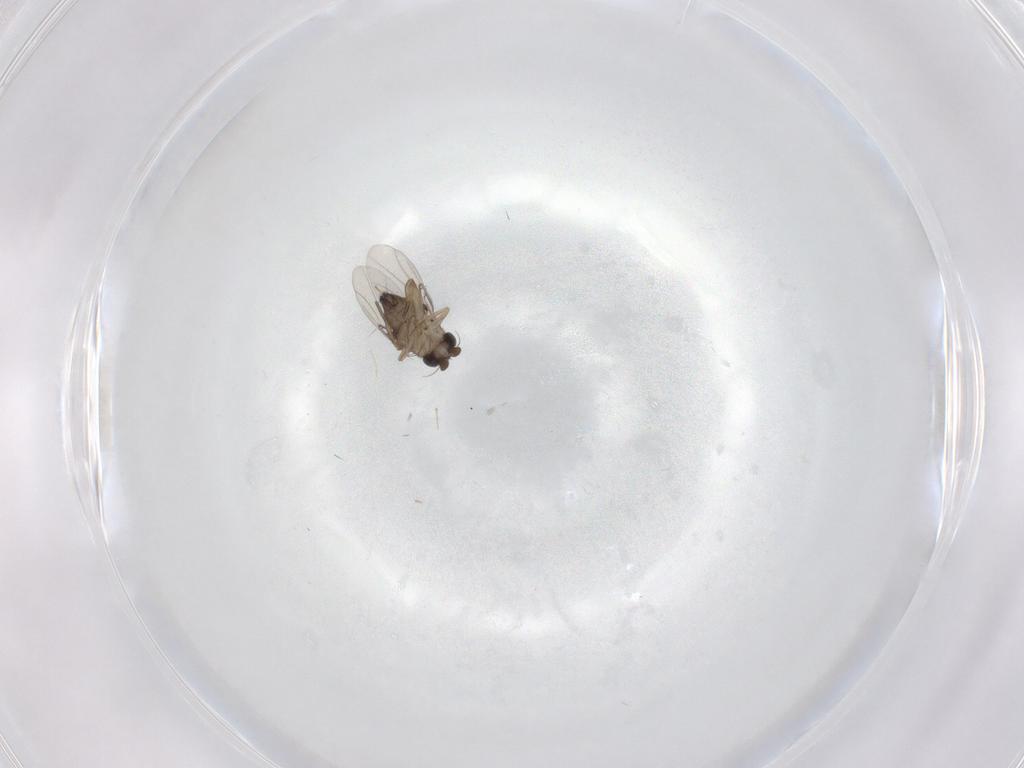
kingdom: Animalia
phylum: Arthropoda
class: Insecta
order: Diptera
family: Phoridae
